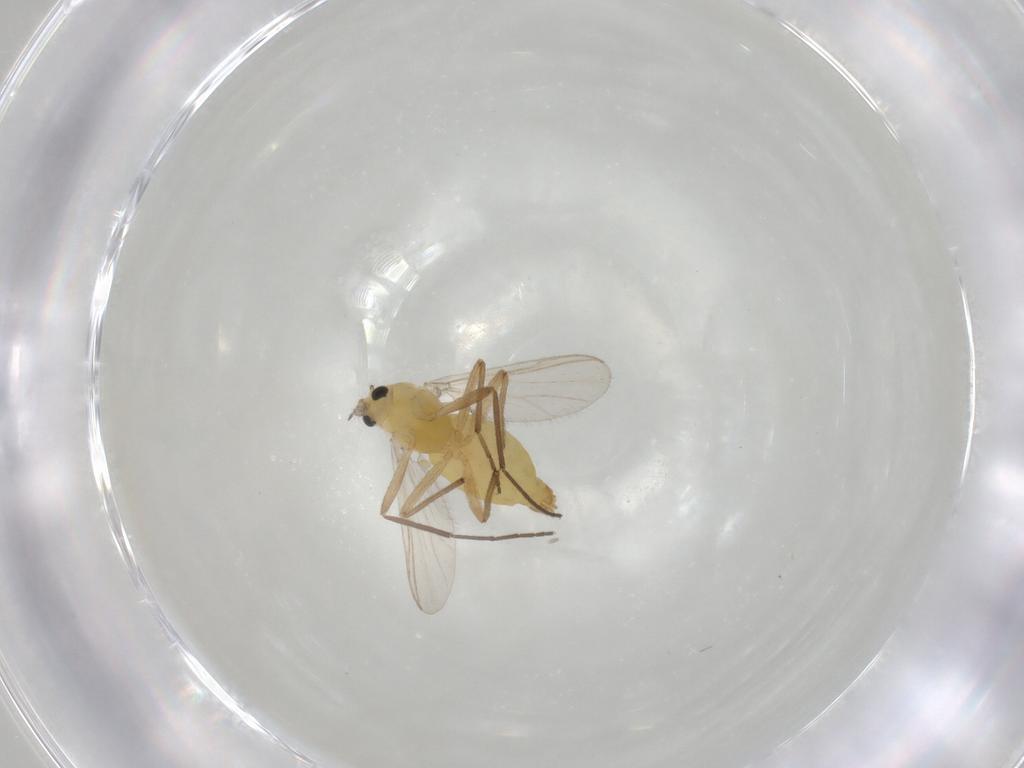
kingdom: Animalia
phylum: Arthropoda
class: Insecta
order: Diptera
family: Chironomidae
